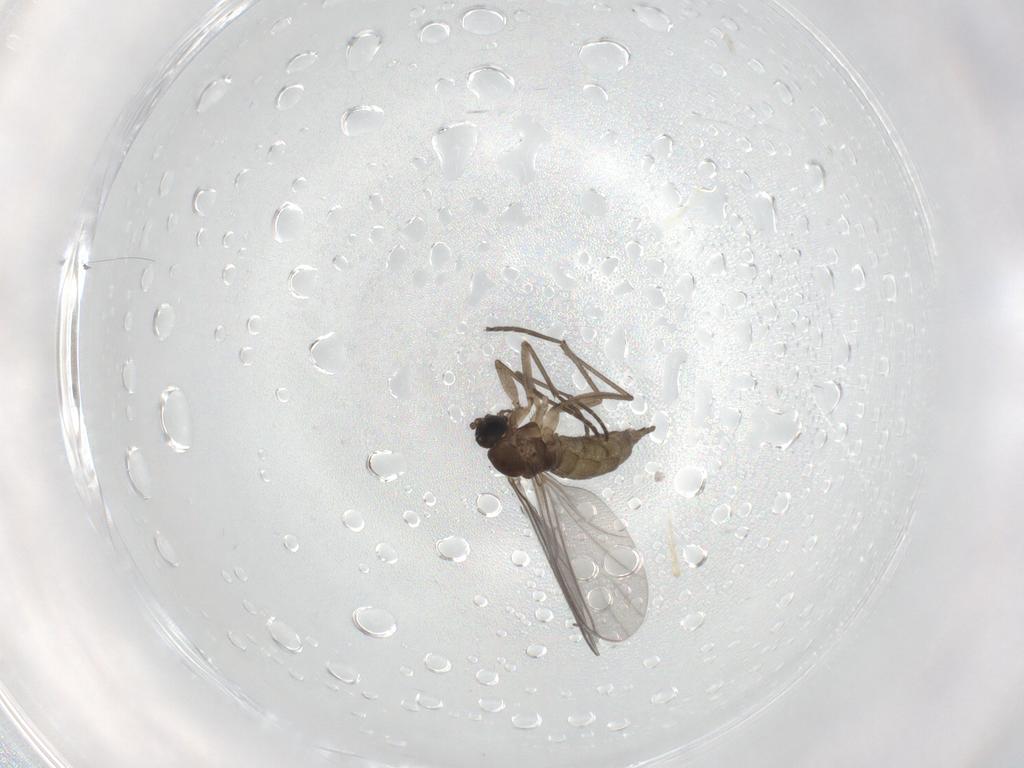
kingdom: Animalia
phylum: Arthropoda
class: Insecta
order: Diptera
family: Sciaridae
